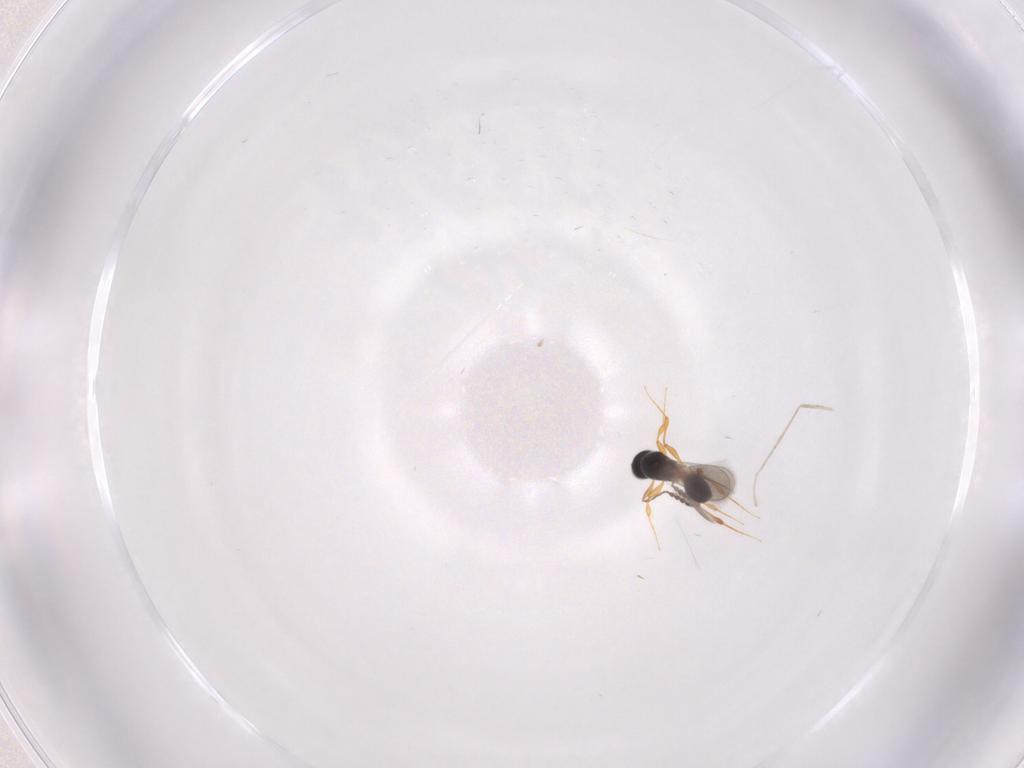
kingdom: Animalia
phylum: Arthropoda
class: Insecta
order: Hymenoptera
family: Platygastridae
